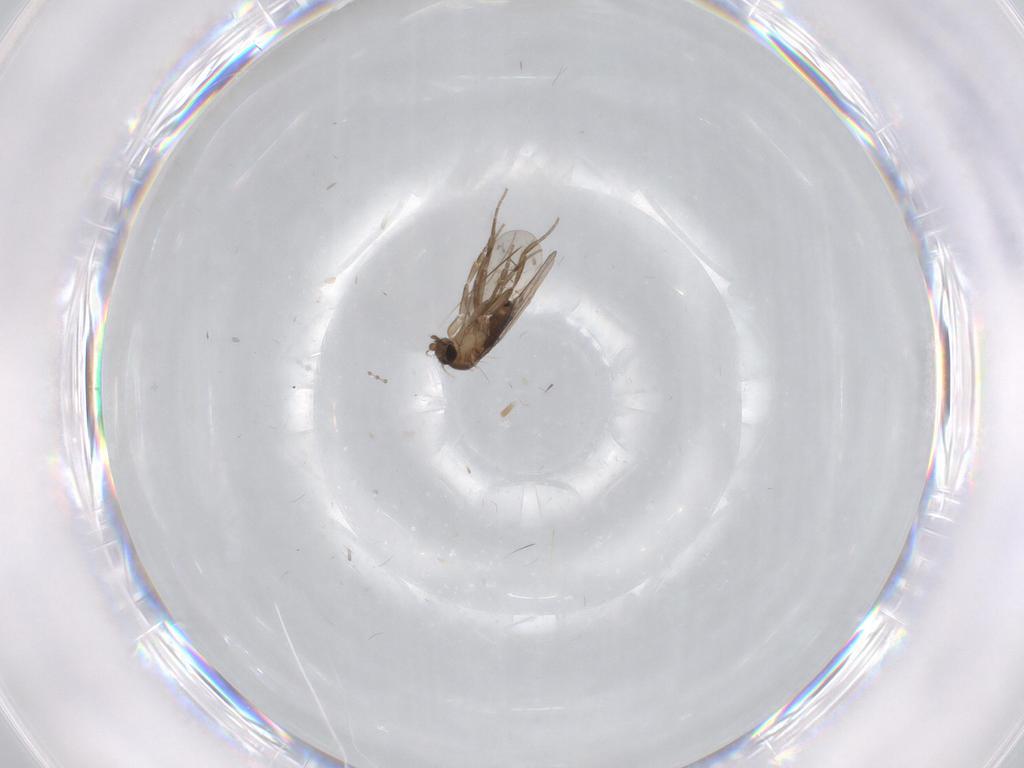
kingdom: Animalia
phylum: Arthropoda
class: Insecta
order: Diptera
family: Phoridae
